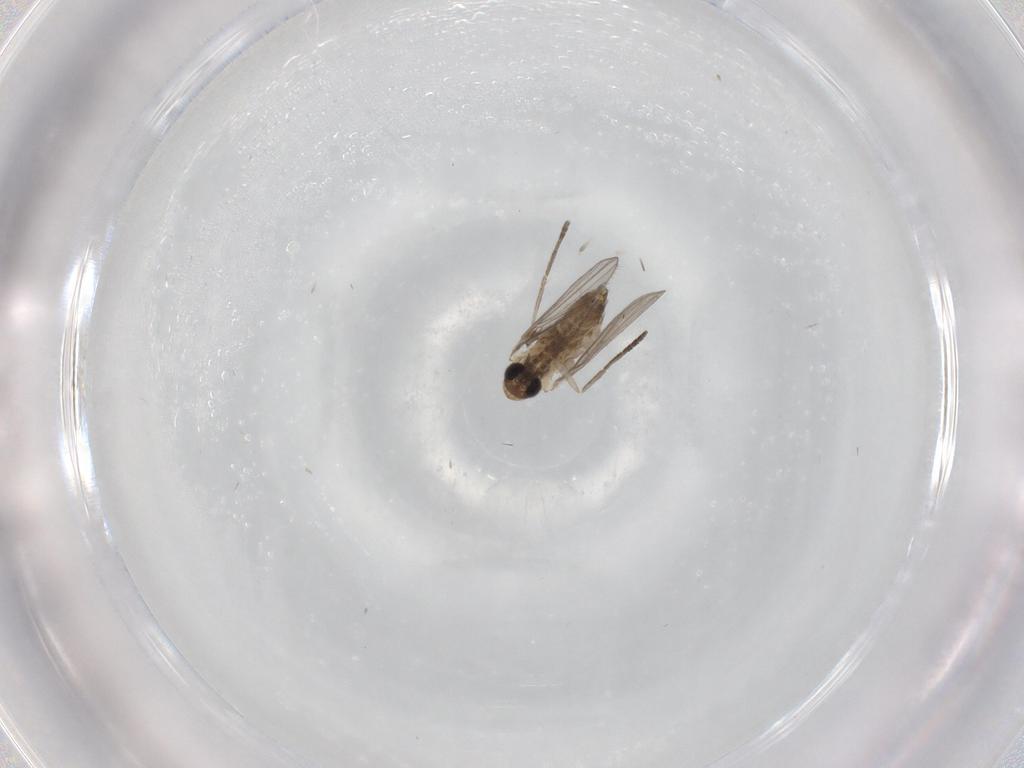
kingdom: Animalia
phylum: Arthropoda
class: Insecta
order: Diptera
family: Psychodidae
